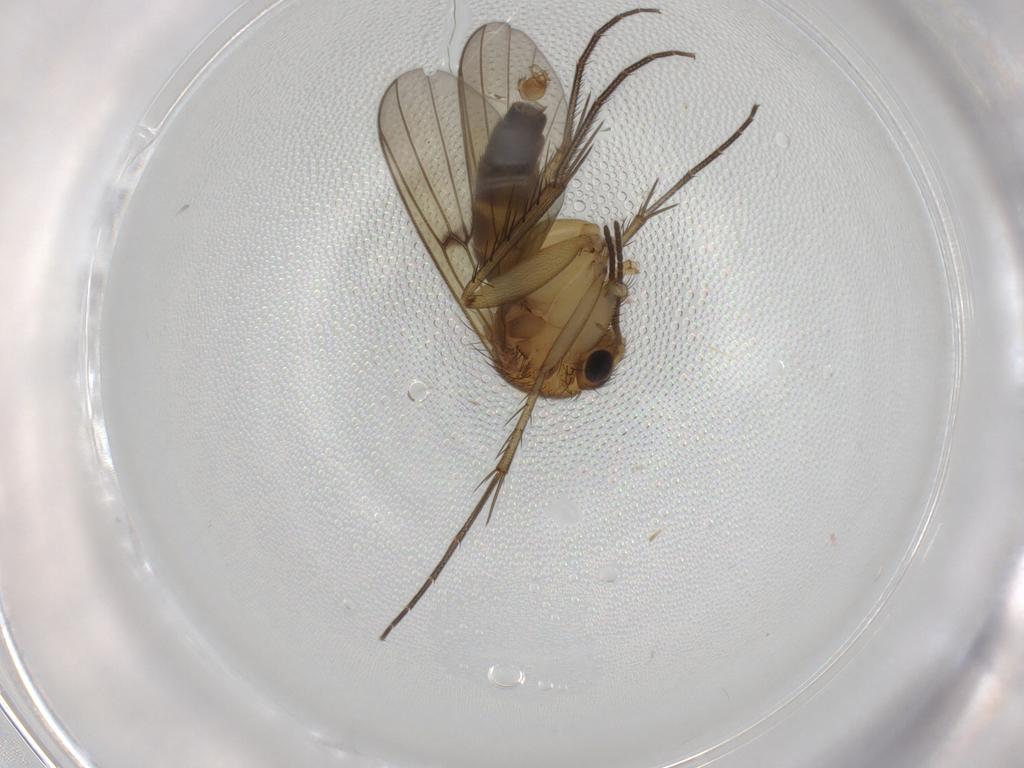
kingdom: Animalia
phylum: Arthropoda
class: Insecta
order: Diptera
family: Mycetophilidae
